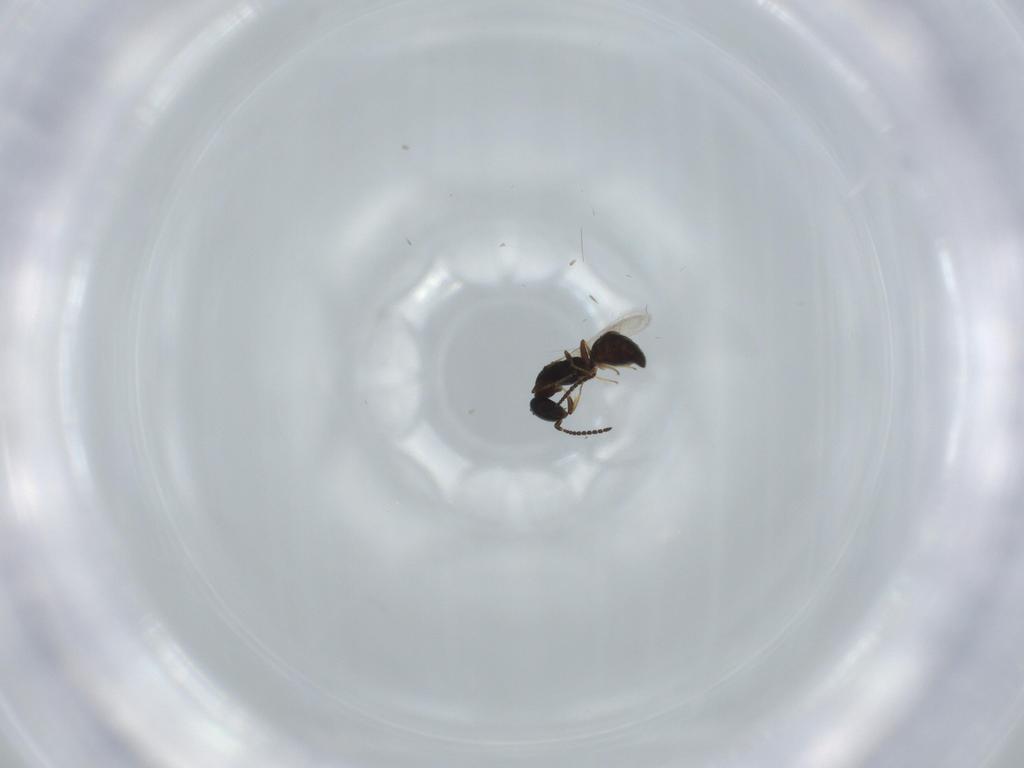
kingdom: Animalia
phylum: Arthropoda
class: Insecta
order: Hymenoptera
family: Bethylidae
